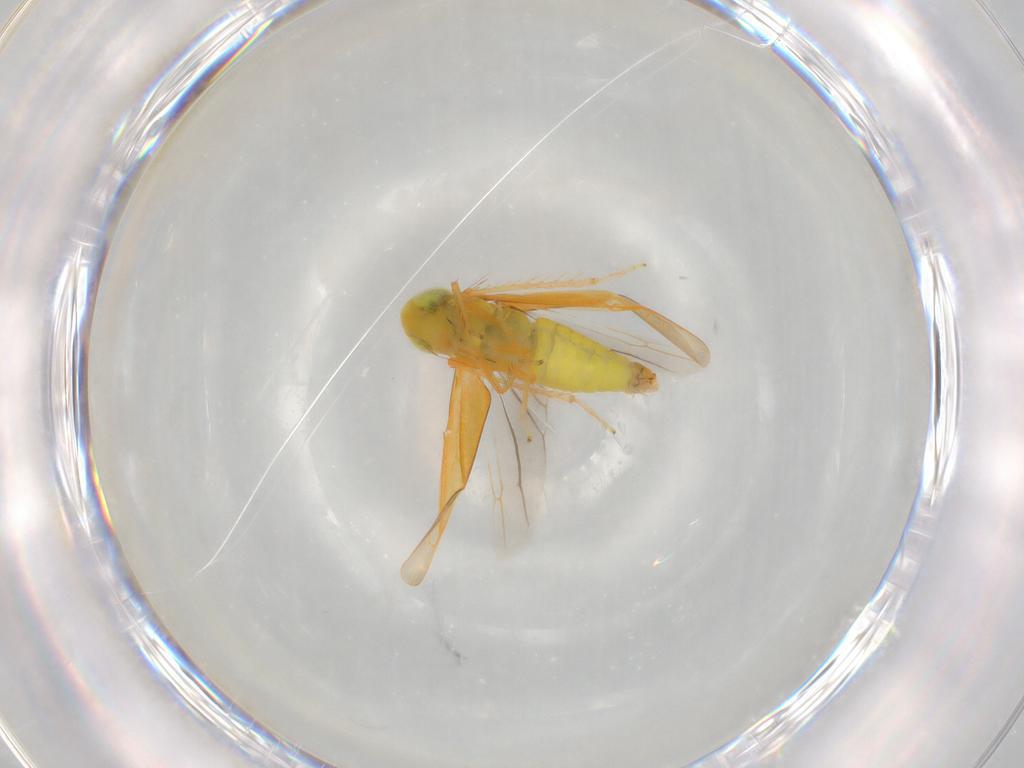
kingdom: Animalia
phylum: Arthropoda
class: Insecta
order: Hemiptera
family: Cicadellidae
